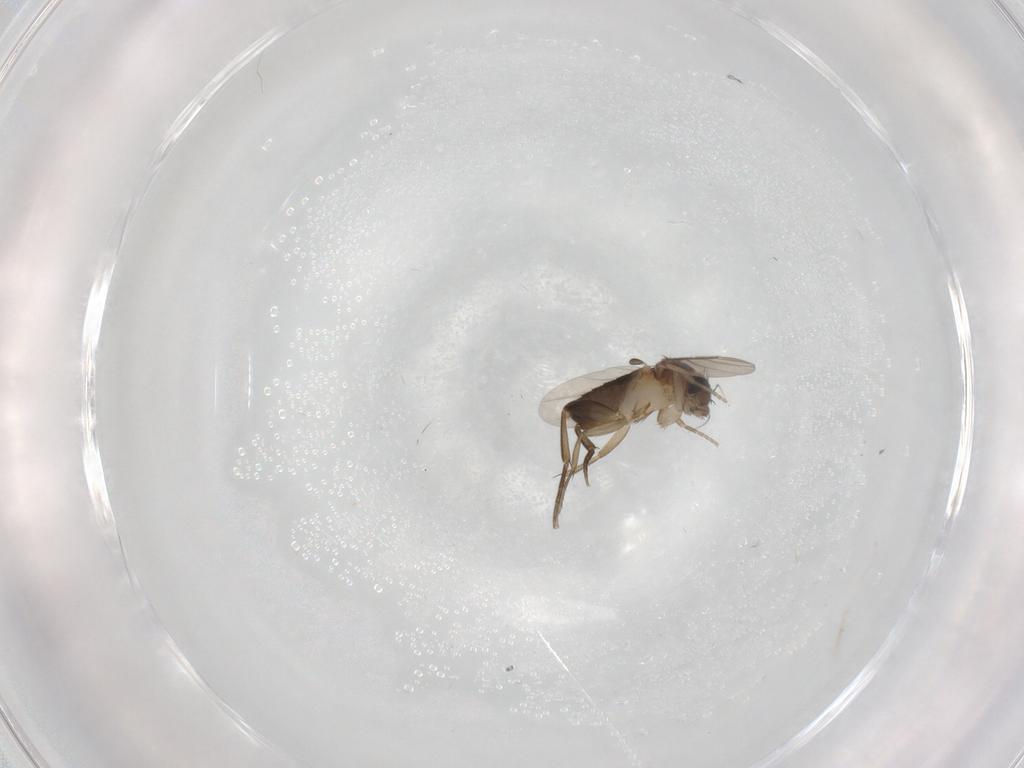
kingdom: Animalia
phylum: Arthropoda
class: Insecta
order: Diptera
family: Phoridae
